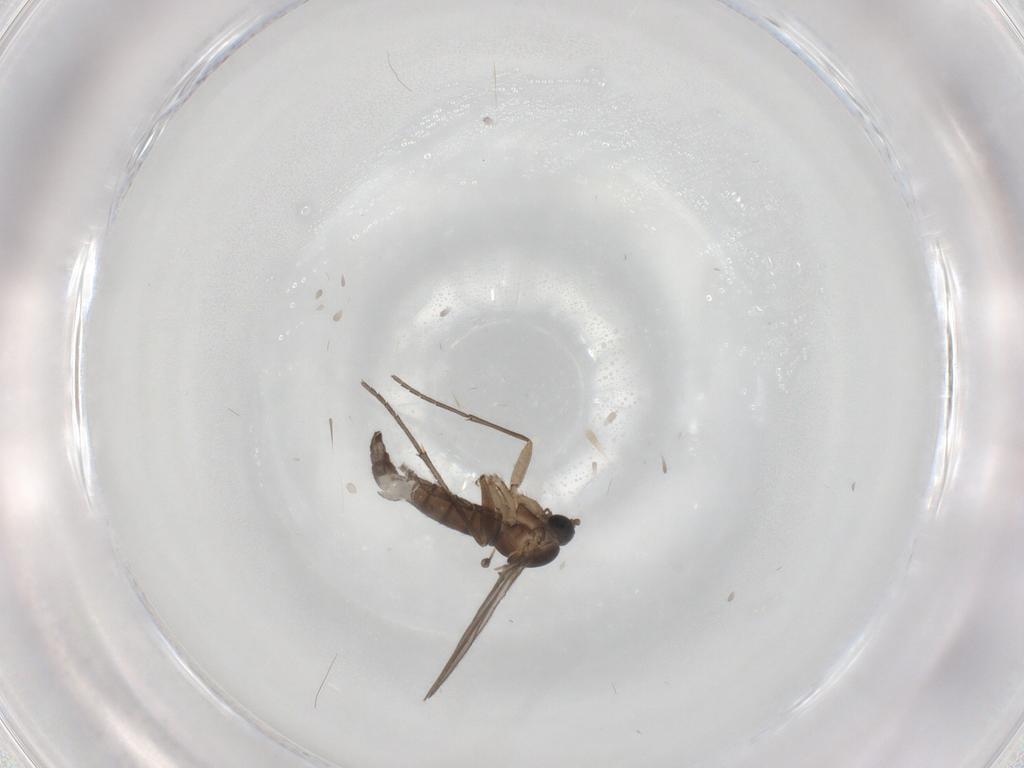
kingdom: Animalia
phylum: Arthropoda
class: Insecta
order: Diptera
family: Sciaridae
